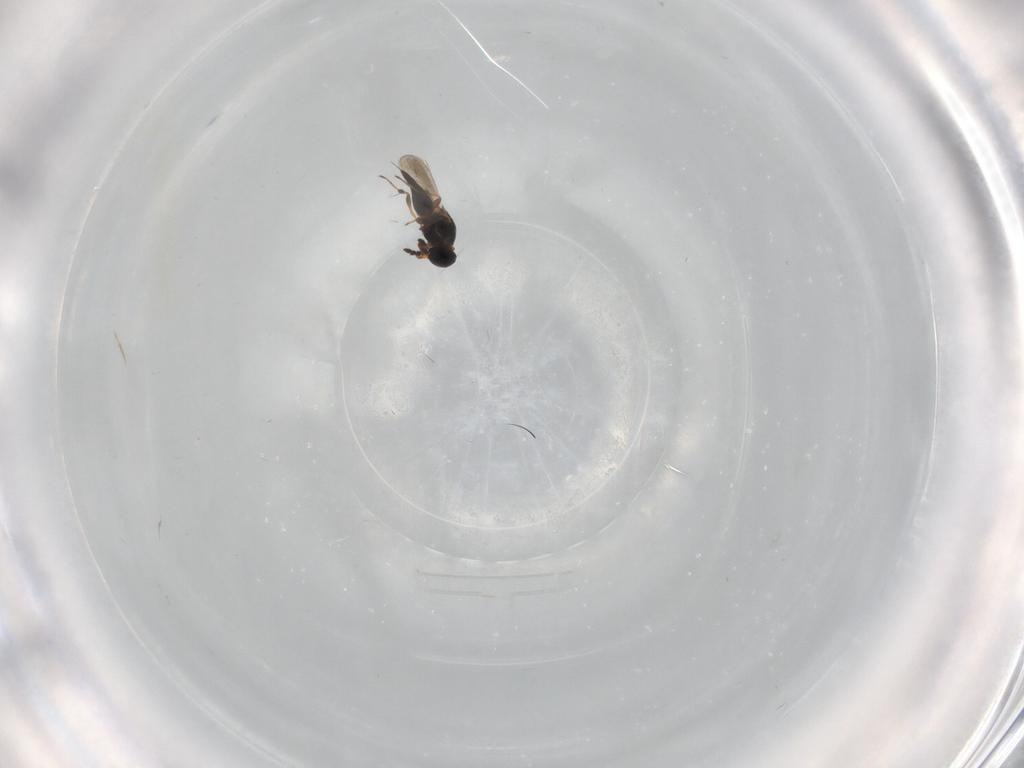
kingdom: Animalia
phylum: Arthropoda
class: Insecta
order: Hymenoptera
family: Platygastridae
